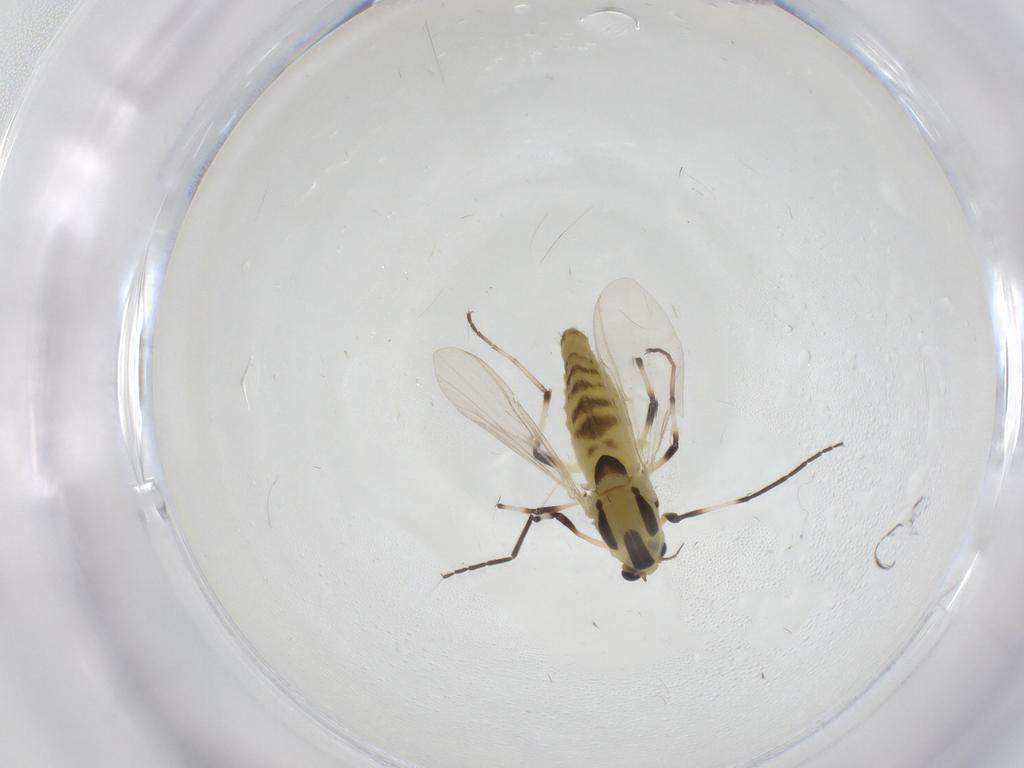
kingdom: Animalia
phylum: Arthropoda
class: Insecta
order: Diptera
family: Chironomidae
